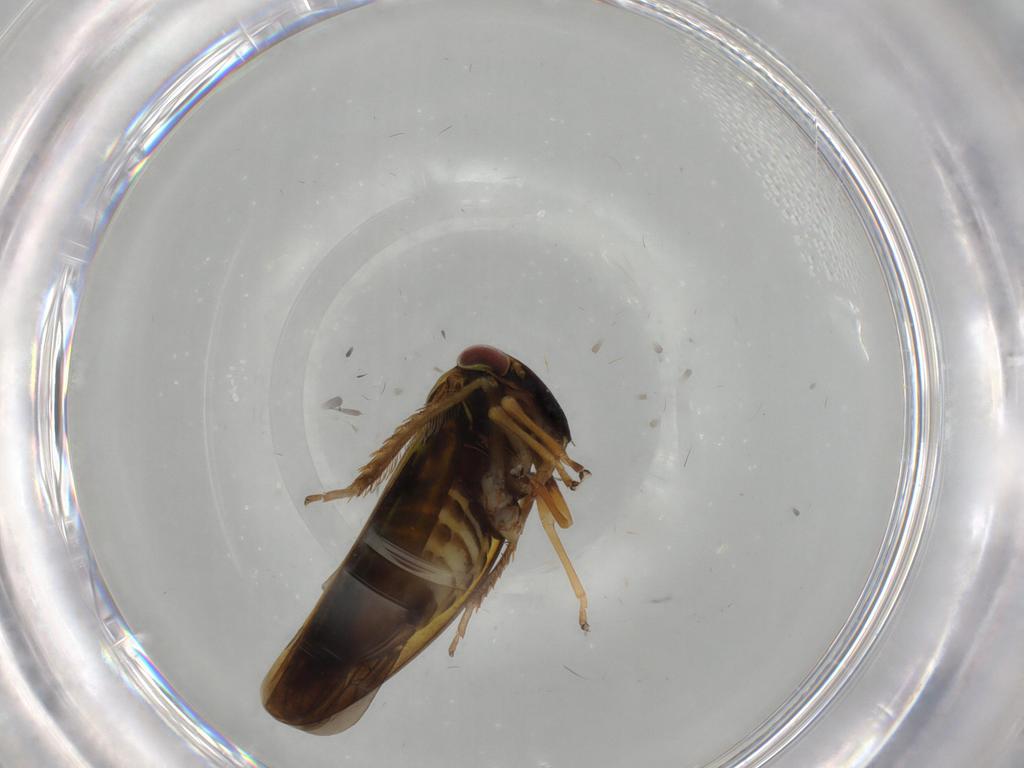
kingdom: Animalia
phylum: Arthropoda
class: Insecta
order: Hemiptera
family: Cicadellidae
